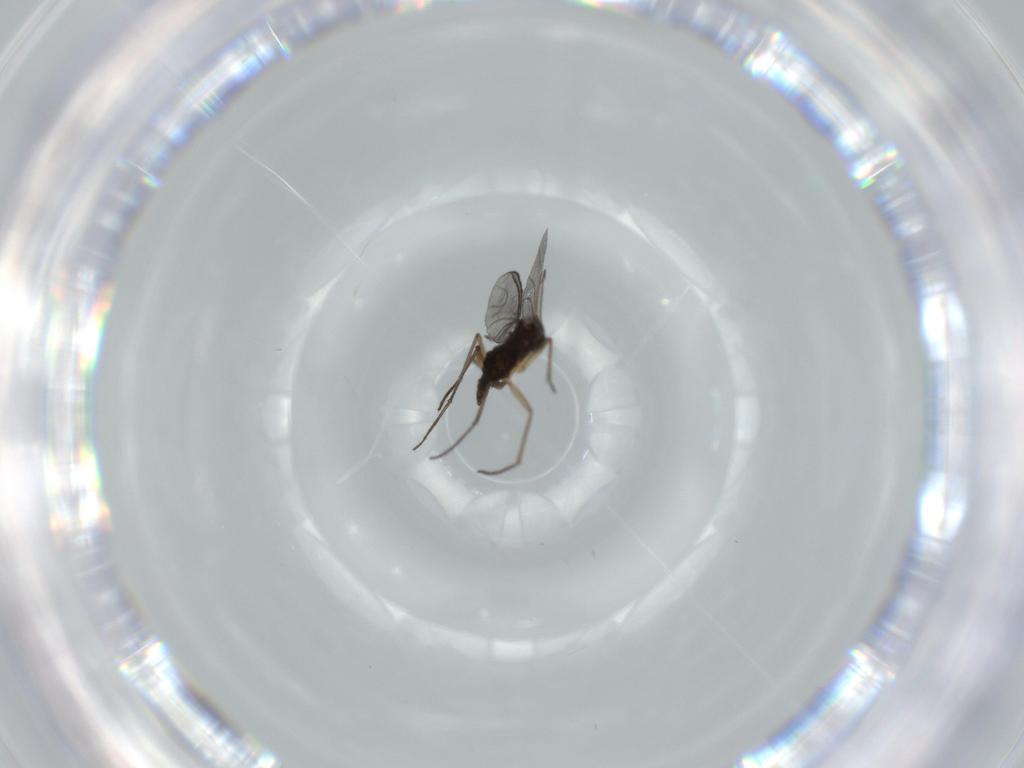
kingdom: Animalia
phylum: Arthropoda
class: Insecta
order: Diptera
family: Sciaridae
